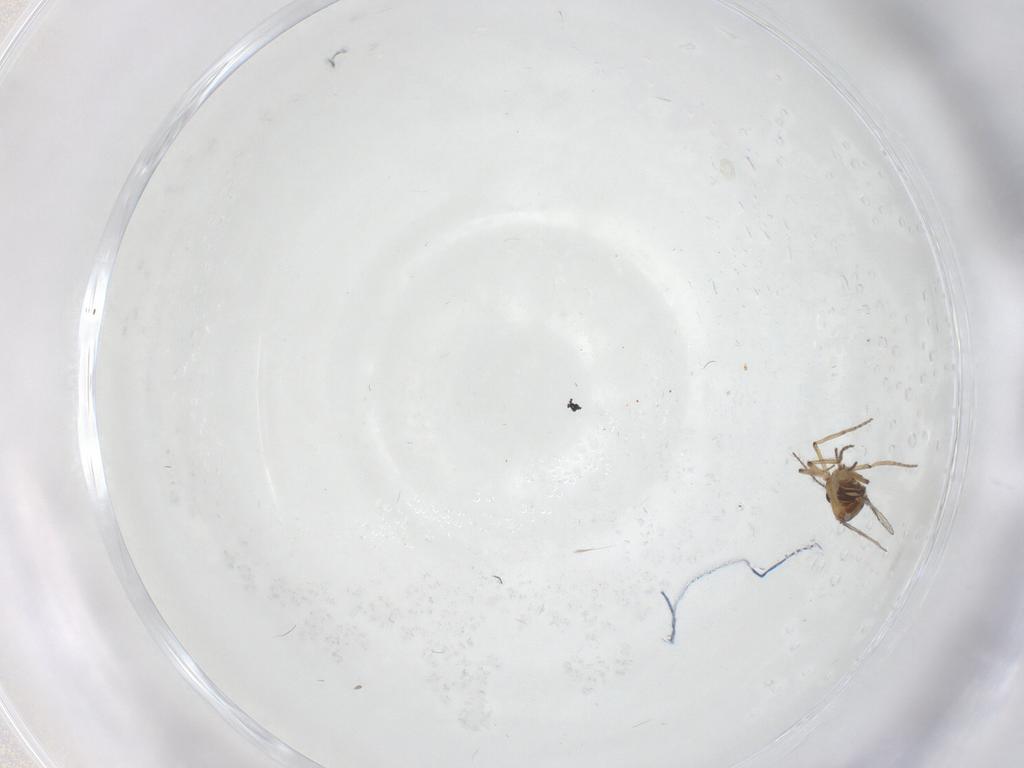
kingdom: Animalia
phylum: Arthropoda
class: Insecta
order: Diptera
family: Ceratopogonidae
